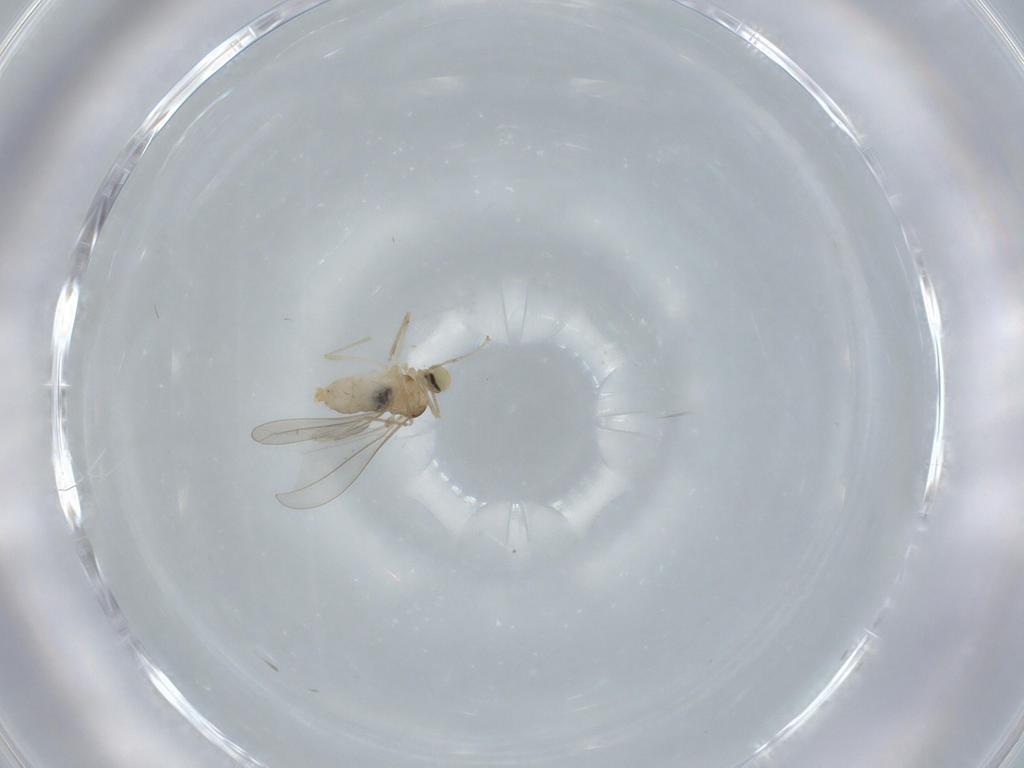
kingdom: Animalia
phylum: Arthropoda
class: Insecta
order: Diptera
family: Cecidomyiidae
